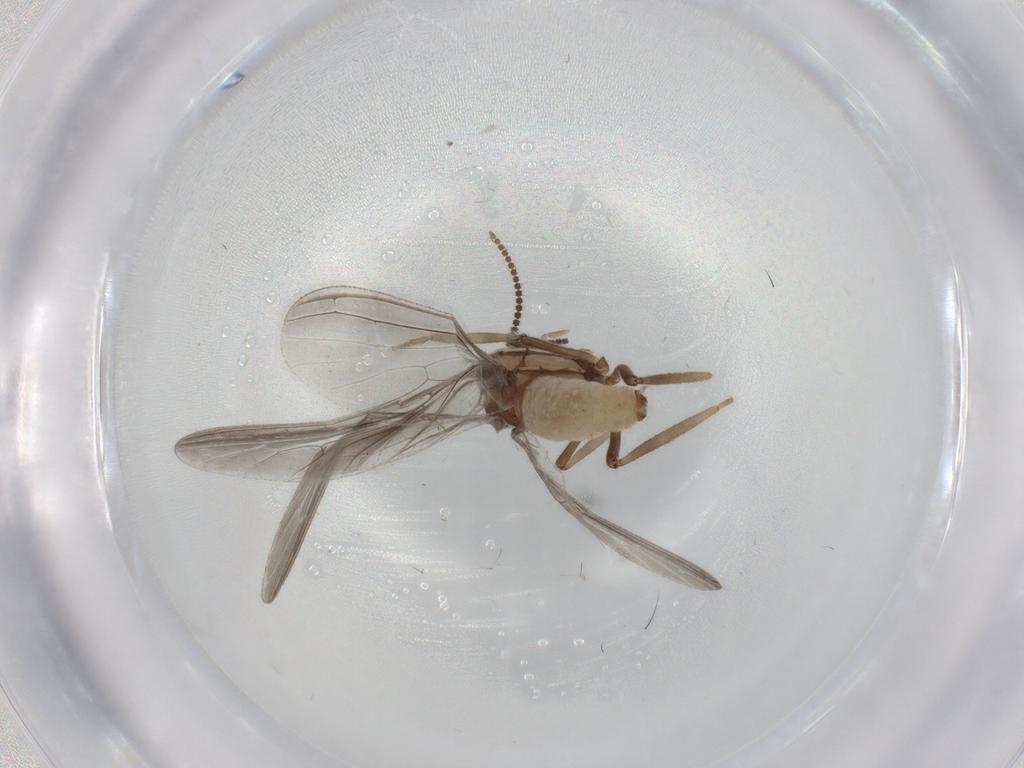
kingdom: Animalia
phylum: Arthropoda
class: Insecta
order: Neuroptera
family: Coniopterygidae
